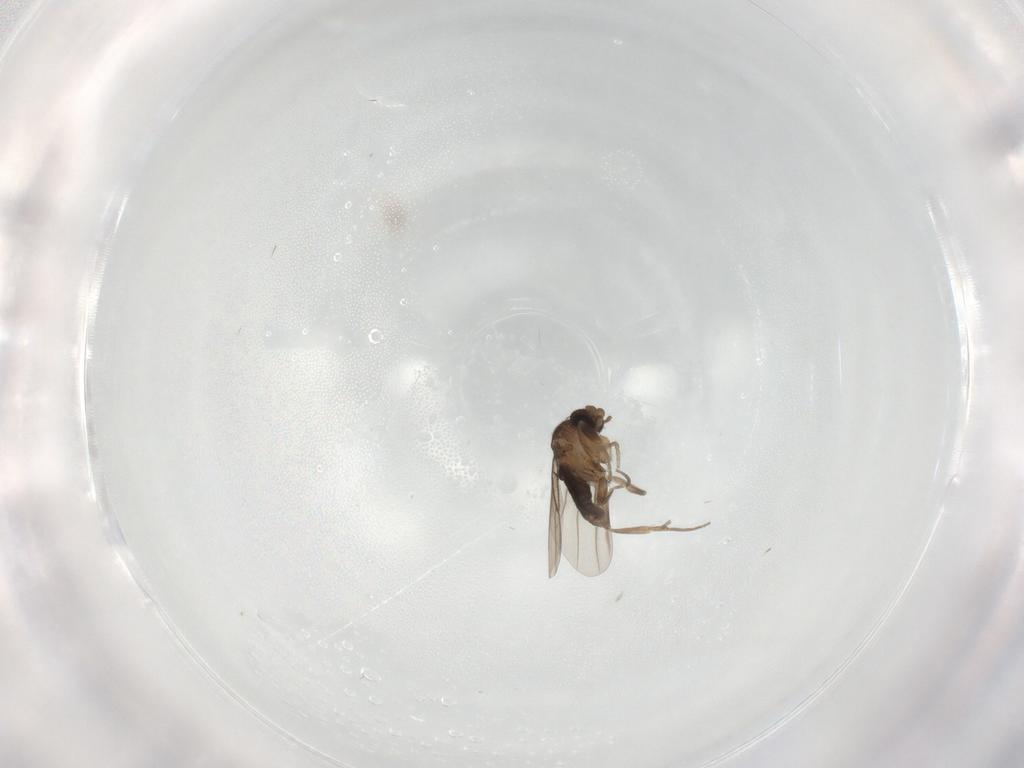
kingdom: Animalia
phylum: Arthropoda
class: Insecta
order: Diptera
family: Phoridae
